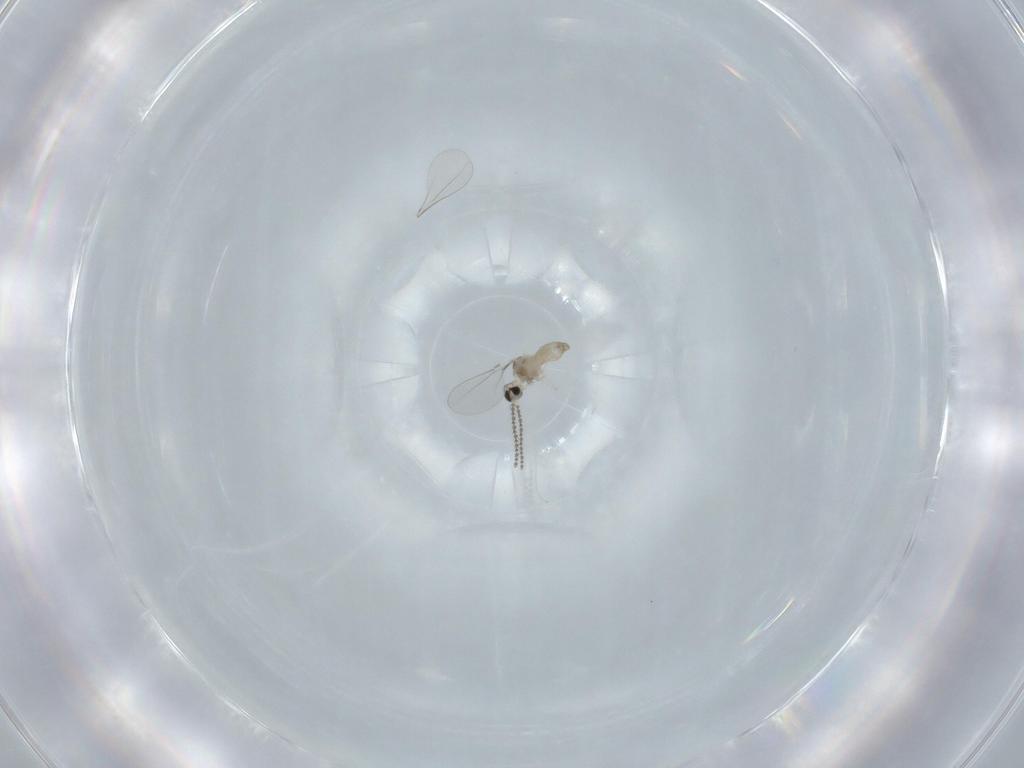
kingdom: Animalia
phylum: Arthropoda
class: Insecta
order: Diptera
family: Cecidomyiidae
